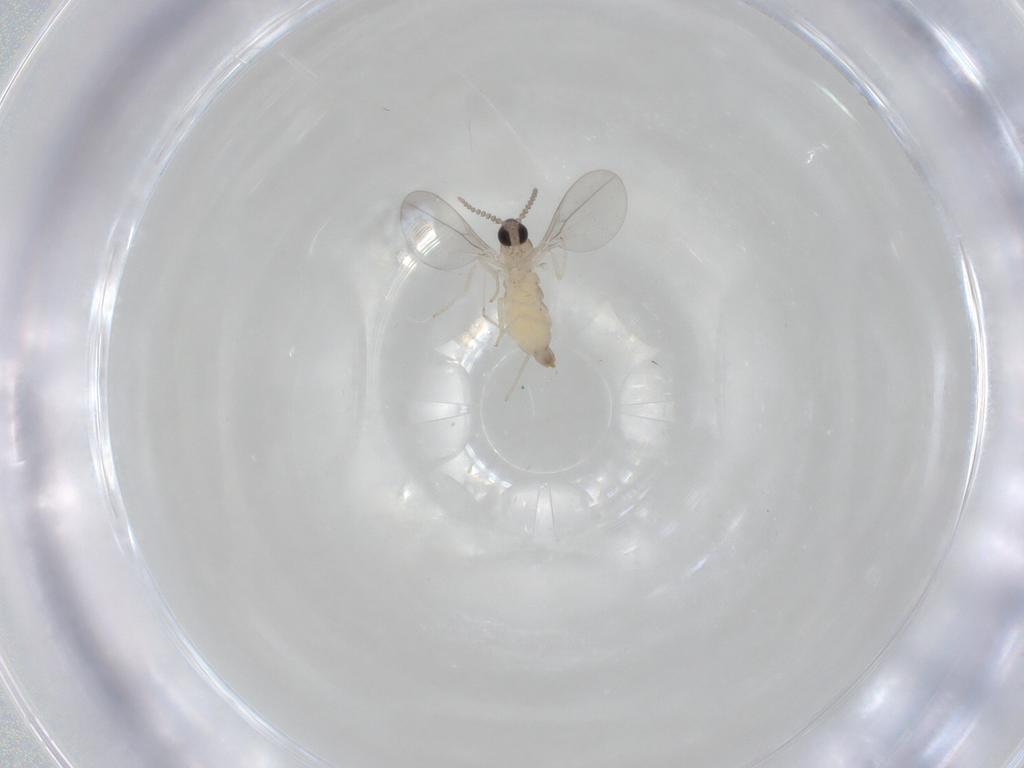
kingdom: Animalia
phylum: Arthropoda
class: Insecta
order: Diptera
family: Cecidomyiidae
